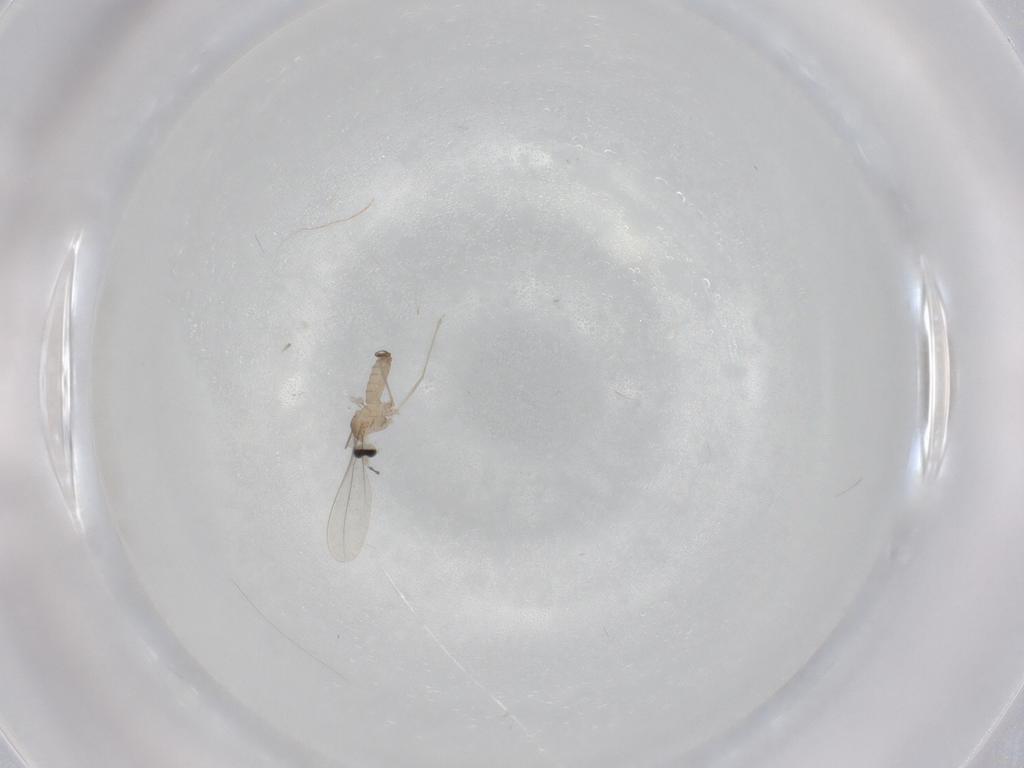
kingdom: Animalia
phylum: Arthropoda
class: Insecta
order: Diptera
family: Cecidomyiidae
